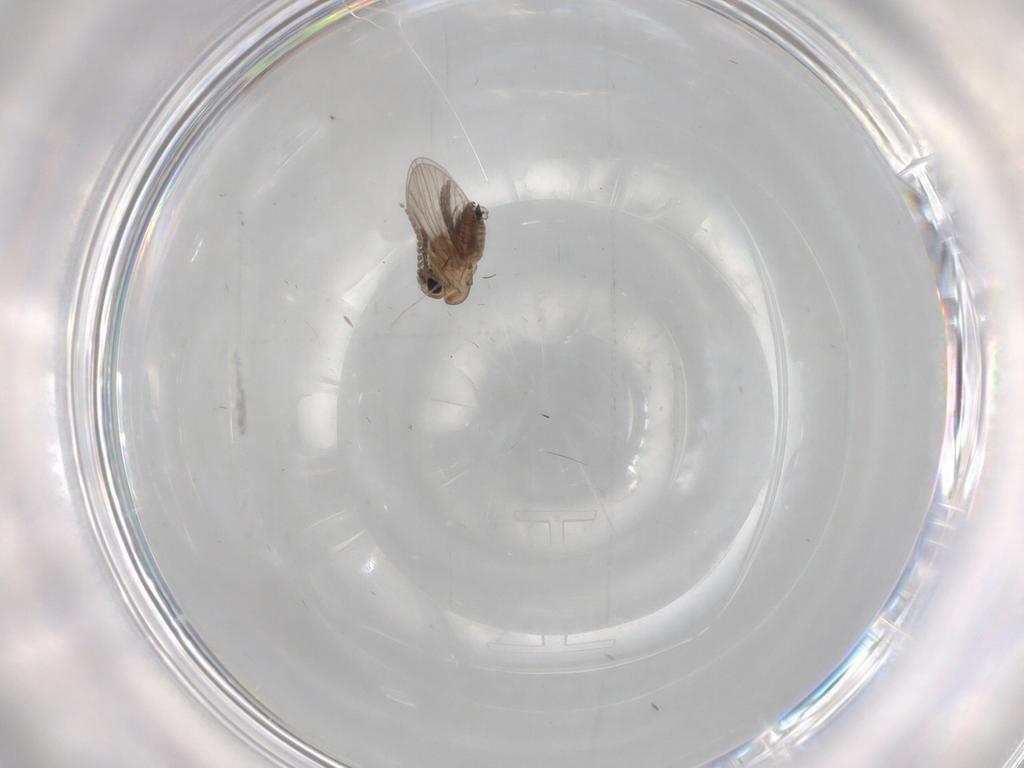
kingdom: Animalia
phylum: Arthropoda
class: Insecta
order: Diptera
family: Cecidomyiidae
